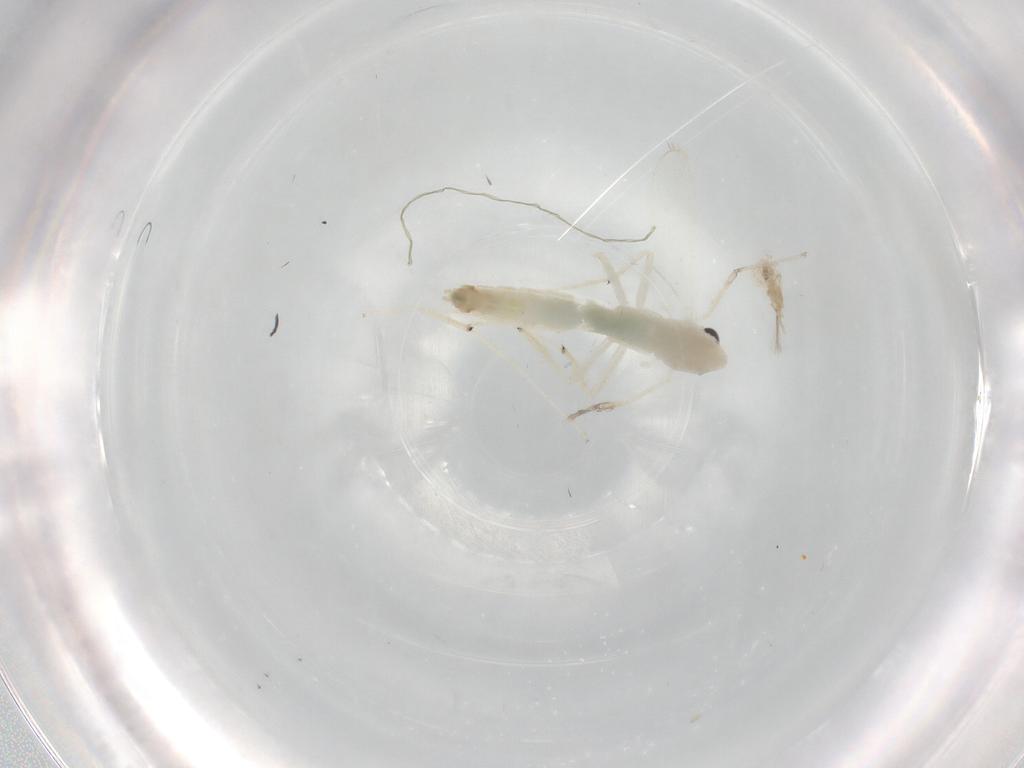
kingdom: Animalia
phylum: Arthropoda
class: Insecta
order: Diptera
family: Chironomidae
